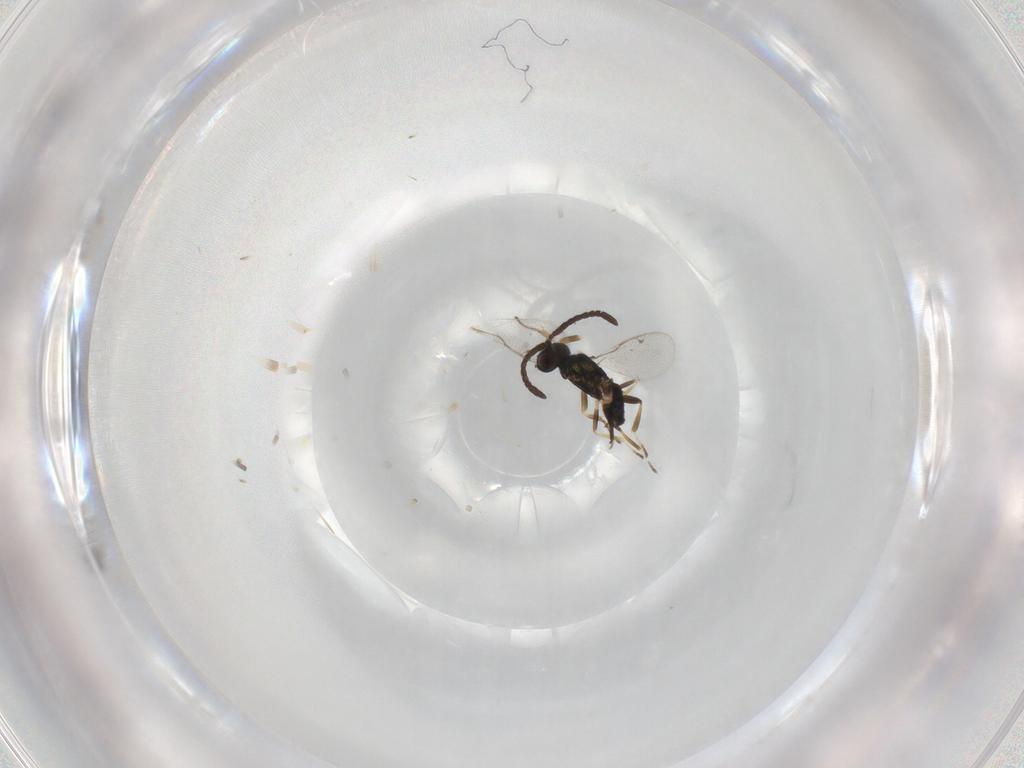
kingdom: Animalia
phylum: Arthropoda
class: Insecta
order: Hymenoptera
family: Eupelmidae
